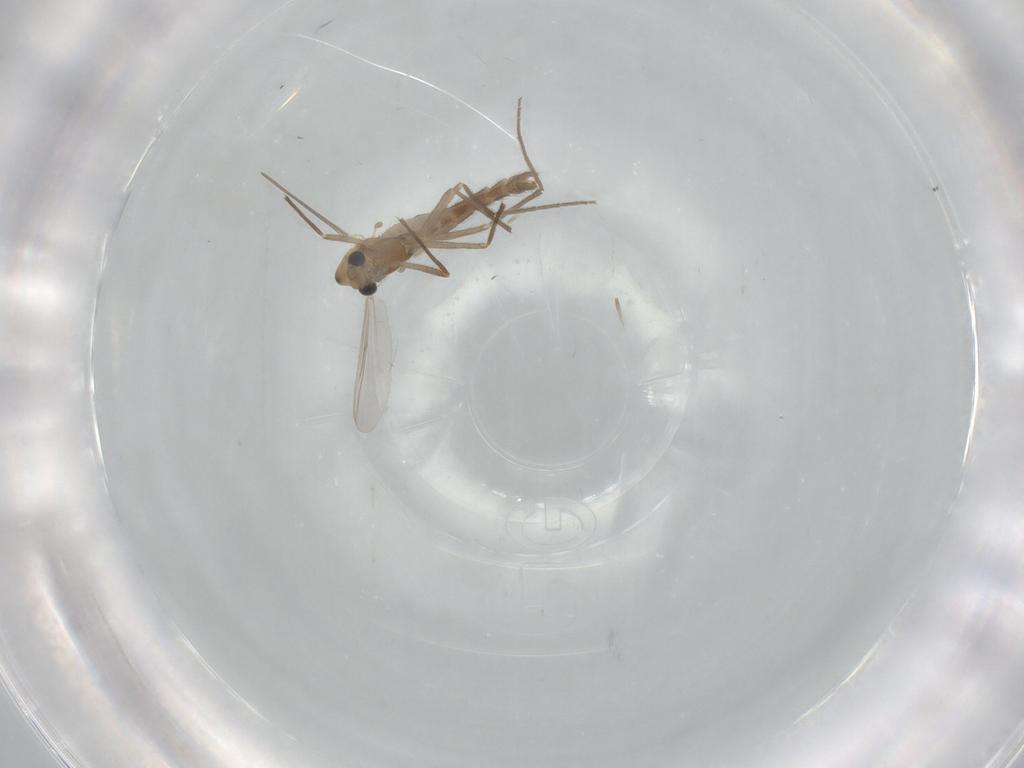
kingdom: Animalia
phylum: Arthropoda
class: Insecta
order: Diptera
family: Chironomidae
